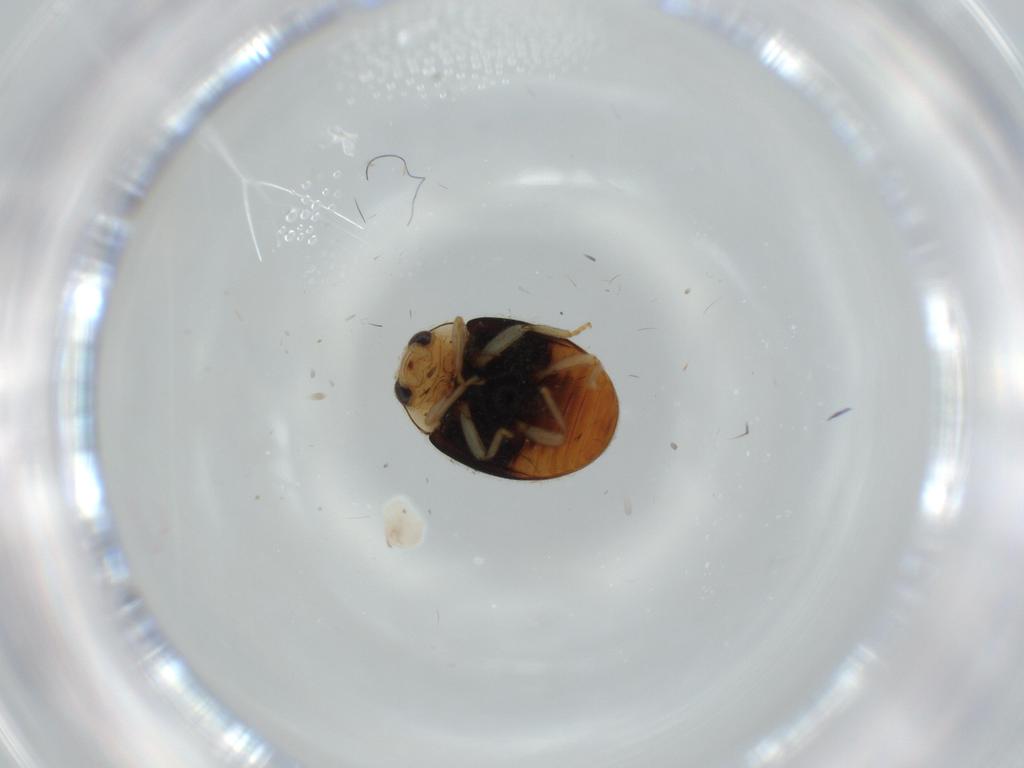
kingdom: Animalia
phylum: Arthropoda
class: Insecta
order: Coleoptera
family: Coccinellidae
